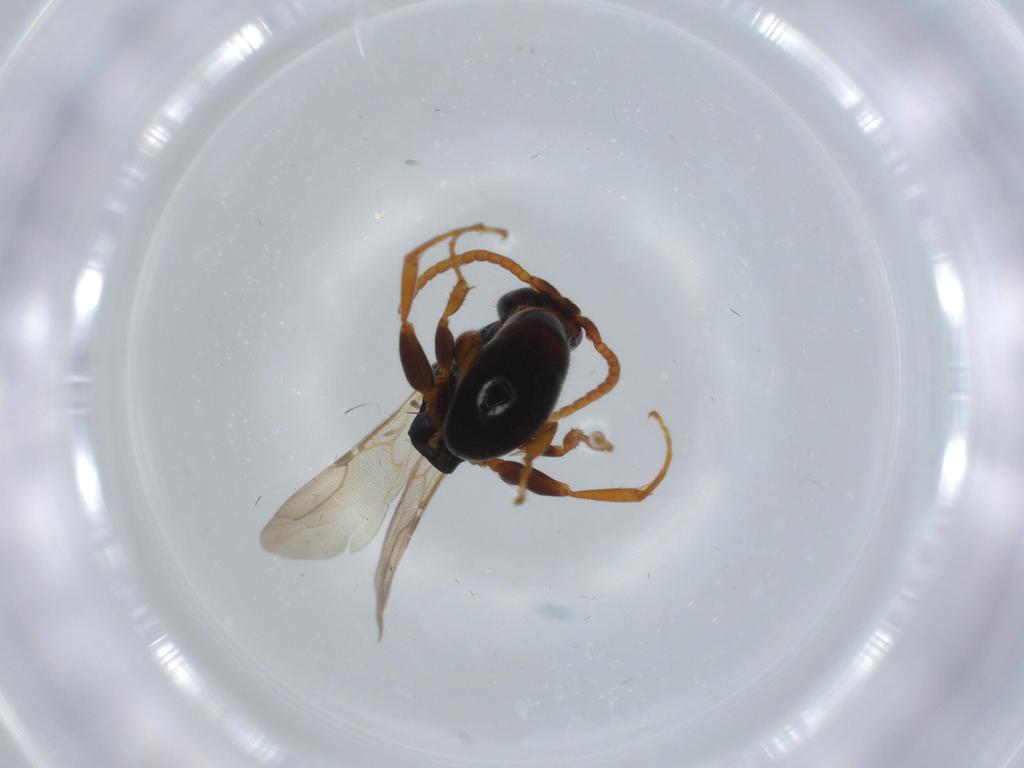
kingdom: Animalia
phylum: Arthropoda
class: Insecta
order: Hymenoptera
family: Bethylidae
